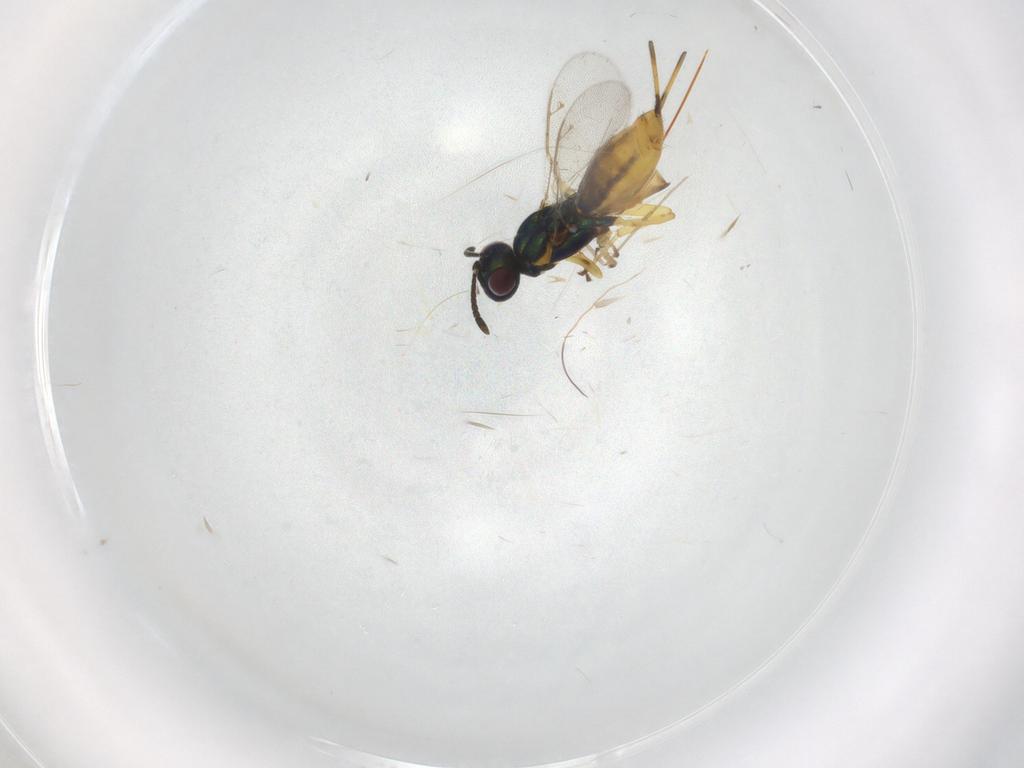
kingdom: Animalia
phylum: Arthropoda
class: Insecta
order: Hymenoptera
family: Eupelmidae
